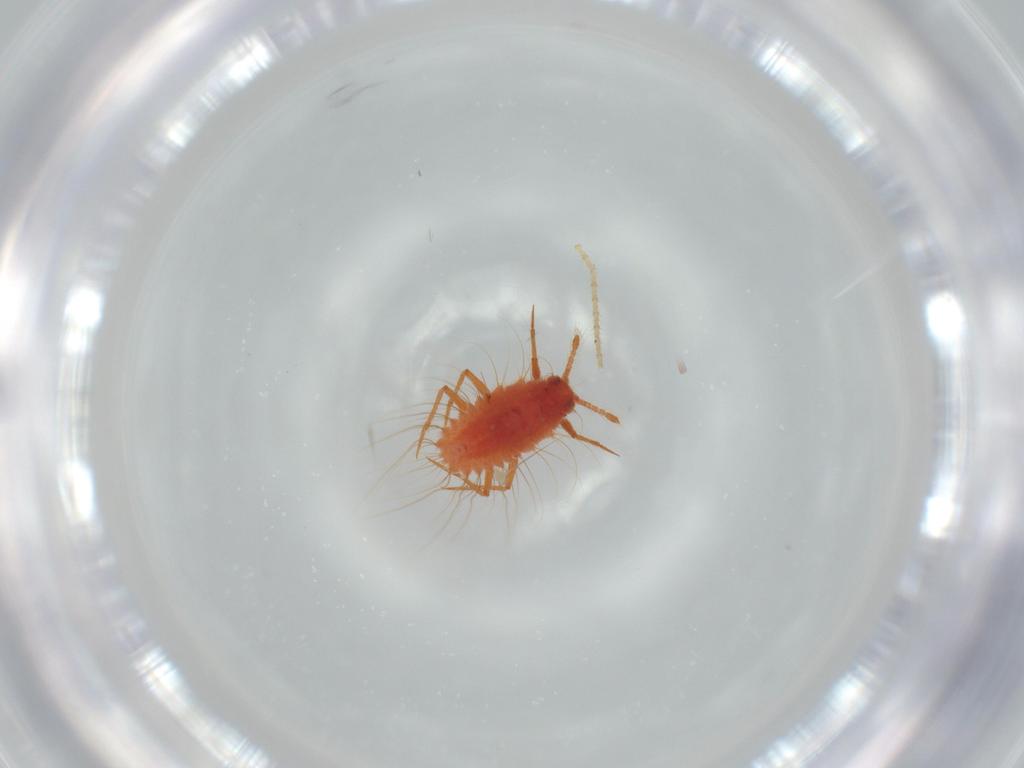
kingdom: Animalia
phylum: Arthropoda
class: Insecta
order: Hemiptera
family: Monophlebidae
